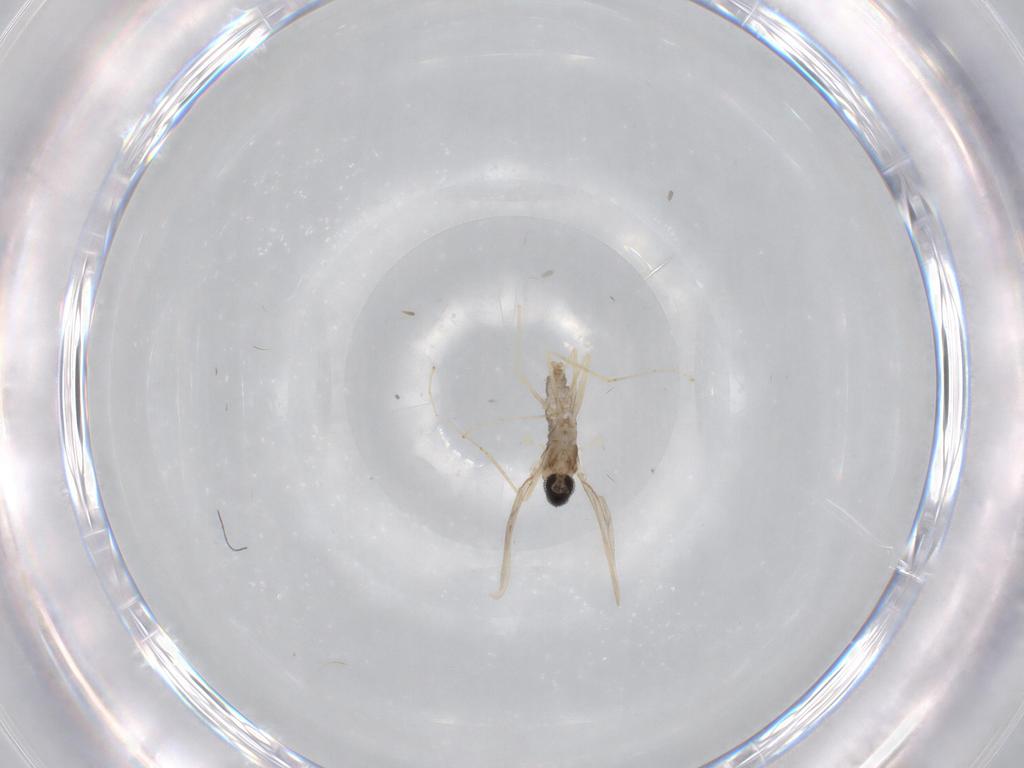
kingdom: Animalia
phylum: Arthropoda
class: Insecta
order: Diptera
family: Cecidomyiidae
